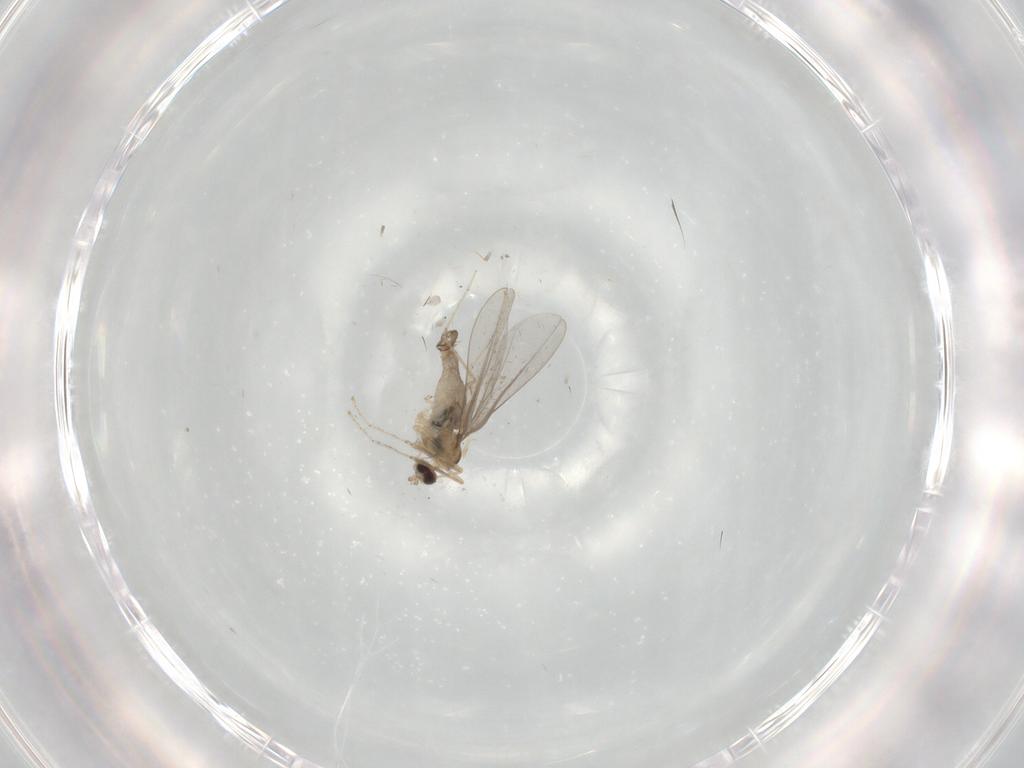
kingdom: Animalia
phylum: Arthropoda
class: Insecta
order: Diptera
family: Cecidomyiidae
